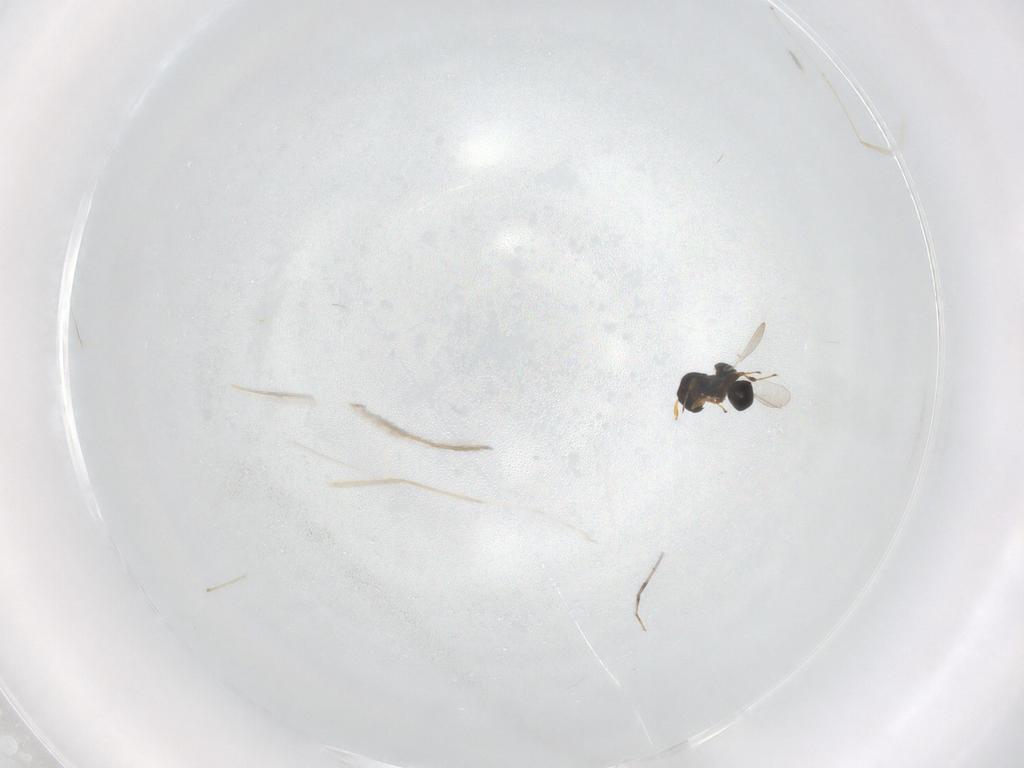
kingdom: Animalia
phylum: Arthropoda
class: Insecta
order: Hymenoptera
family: Platygastridae
